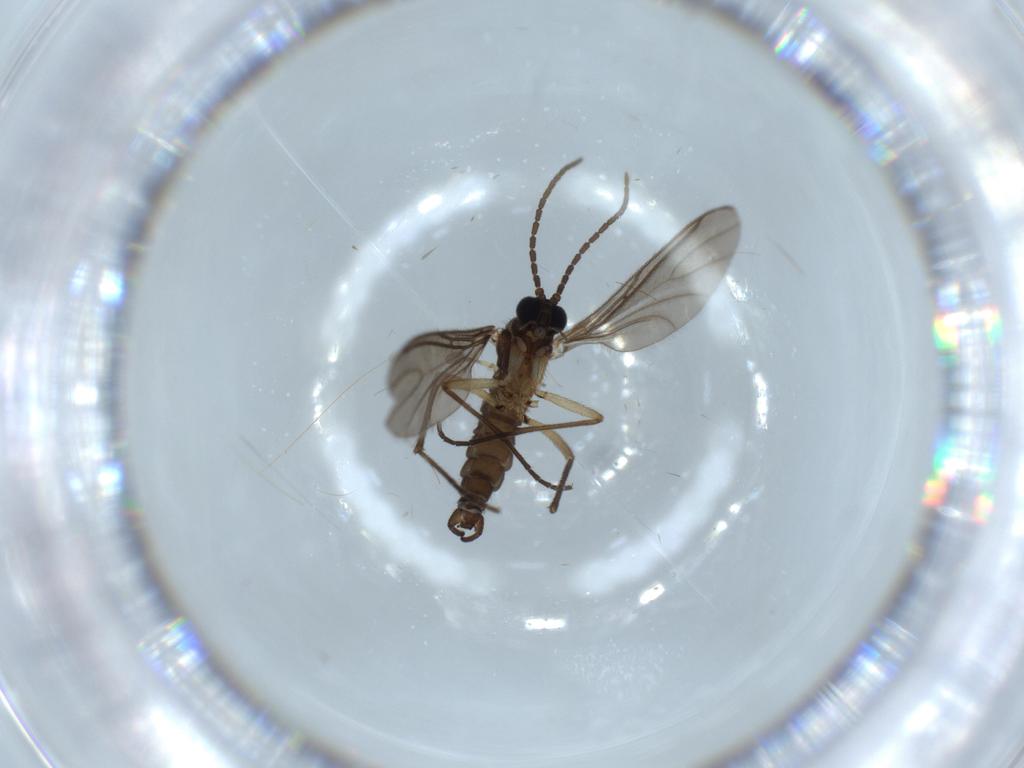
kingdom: Animalia
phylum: Arthropoda
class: Insecta
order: Diptera
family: Sciaridae
